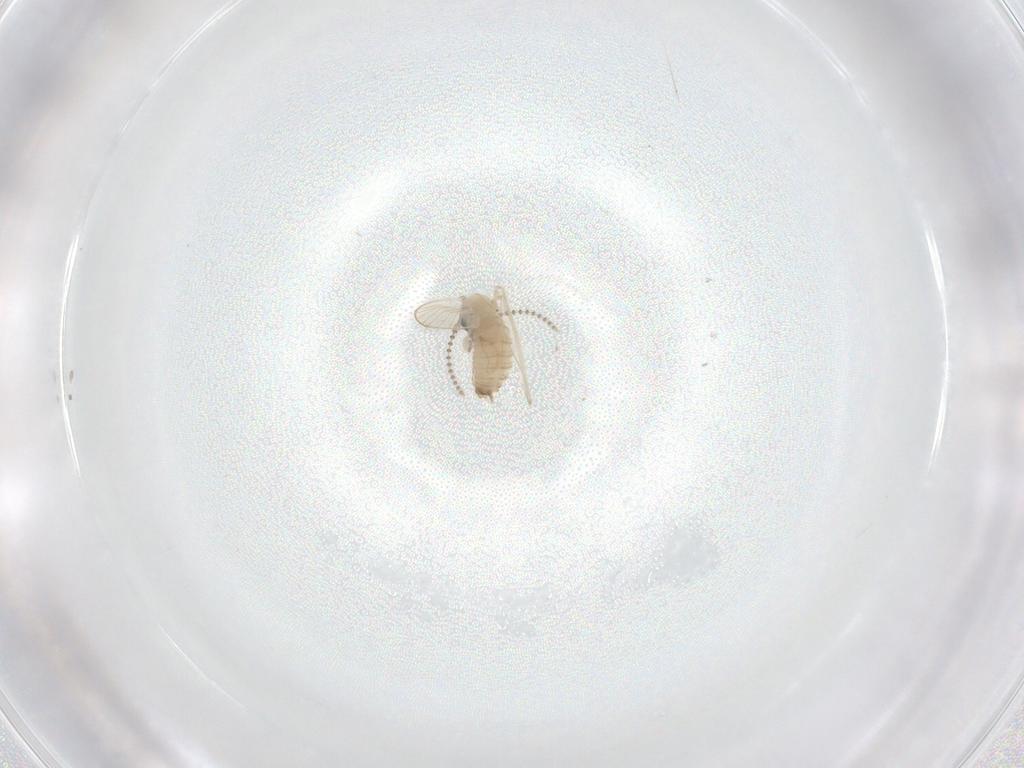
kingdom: Animalia
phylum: Arthropoda
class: Insecta
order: Diptera
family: Psychodidae
